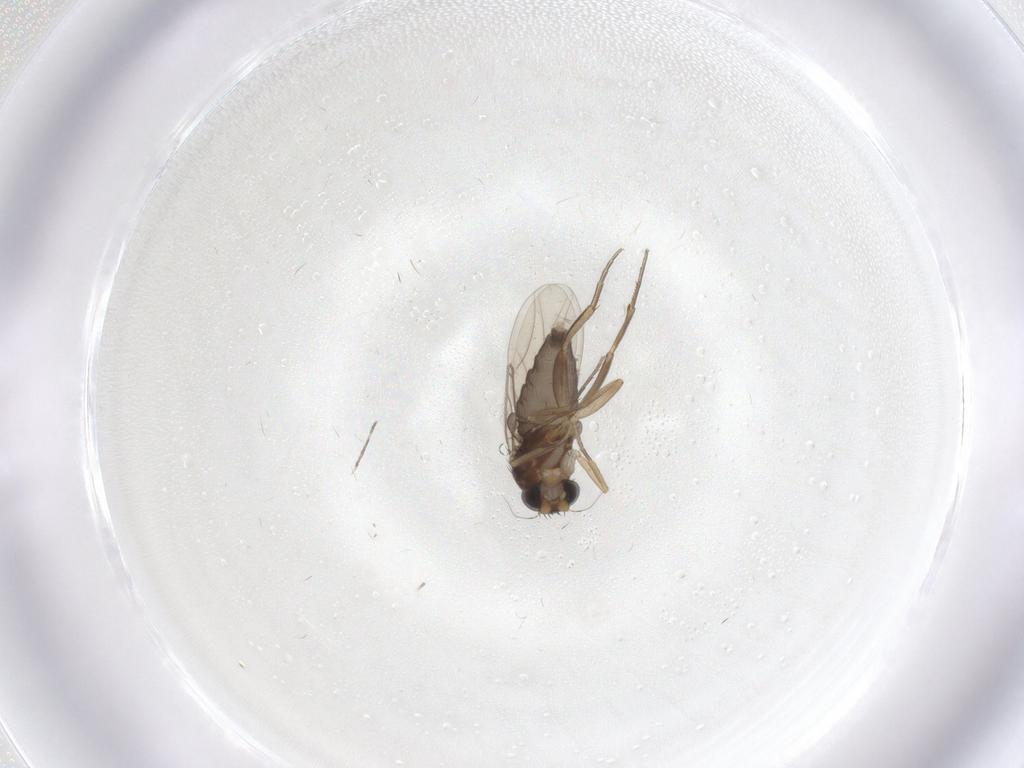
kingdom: Animalia
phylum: Arthropoda
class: Insecta
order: Diptera
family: Phoridae
